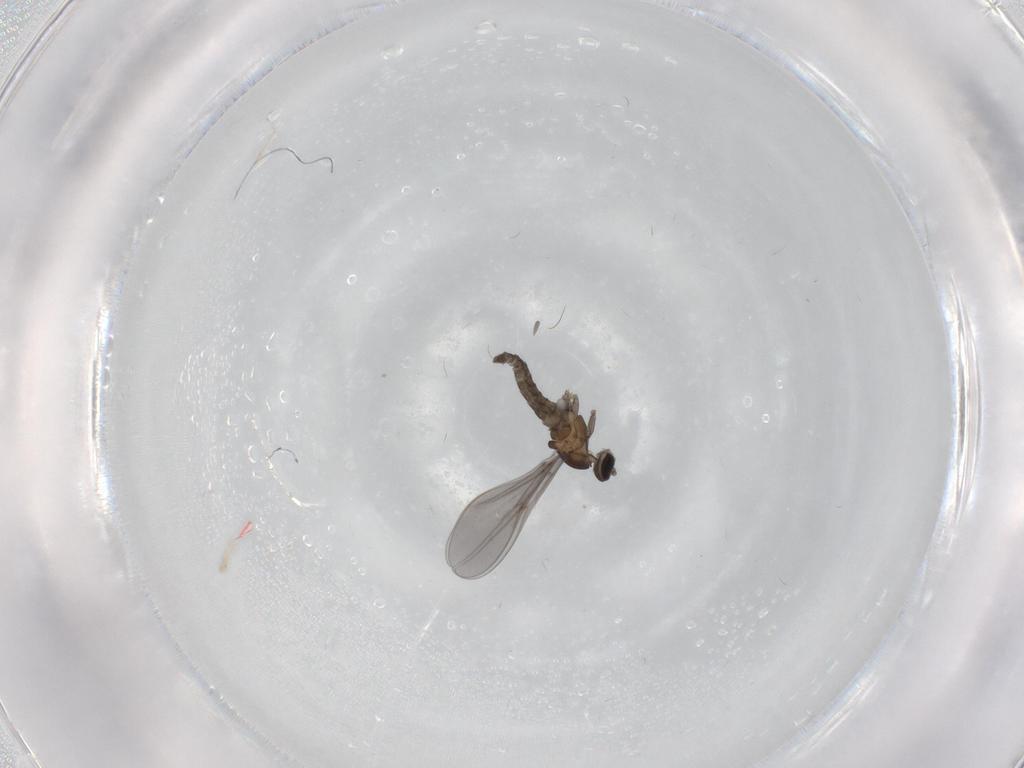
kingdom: Animalia
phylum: Arthropoda
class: Insecta
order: Diptera
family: Cecidomyiidae
